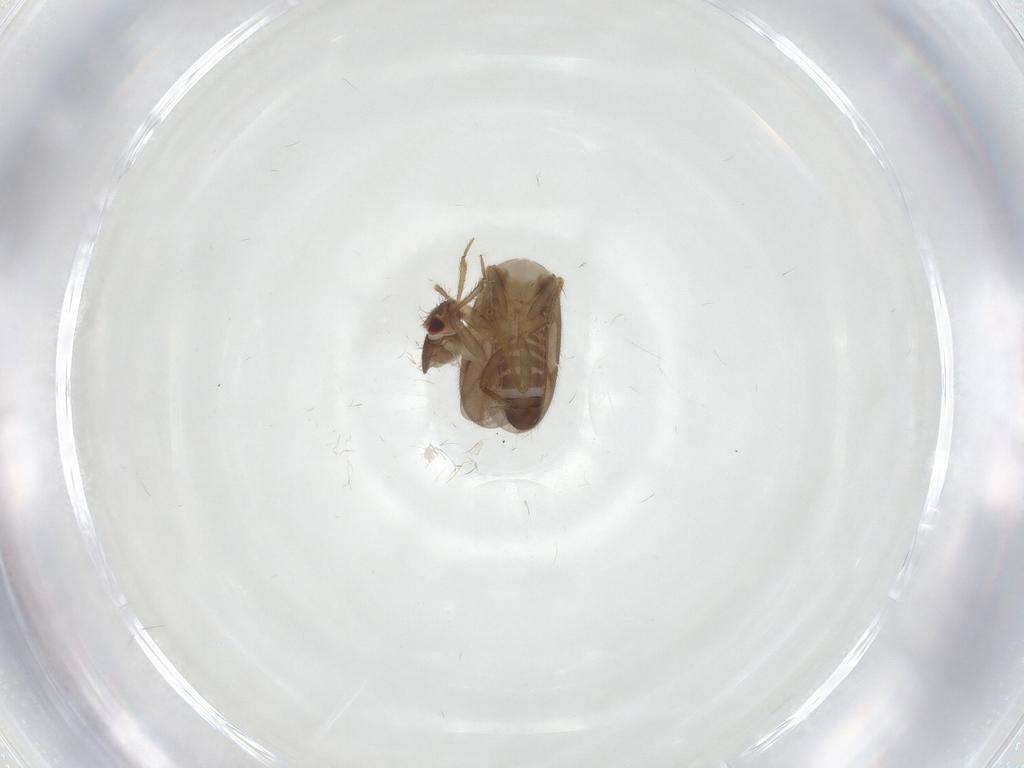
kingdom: Animalia
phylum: Arthropoda
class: Insecta
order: Hemiptera
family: Ceratocombidae
